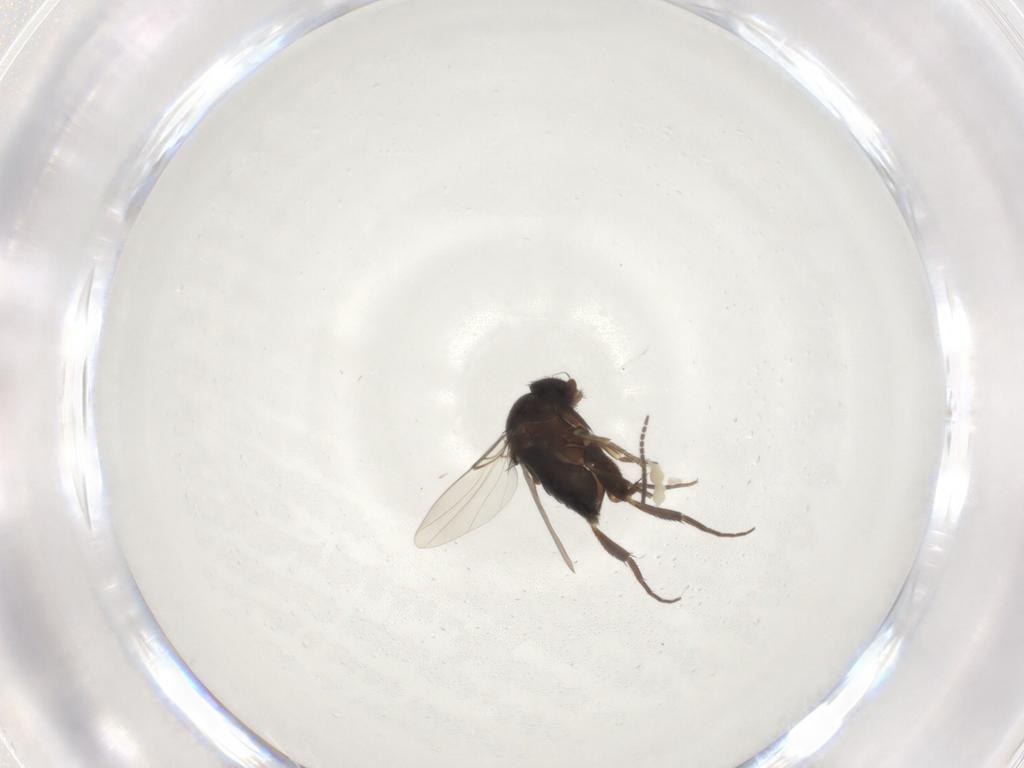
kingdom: Animalia
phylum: Arthropoda
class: Insecta
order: Diptera
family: Phoridae
